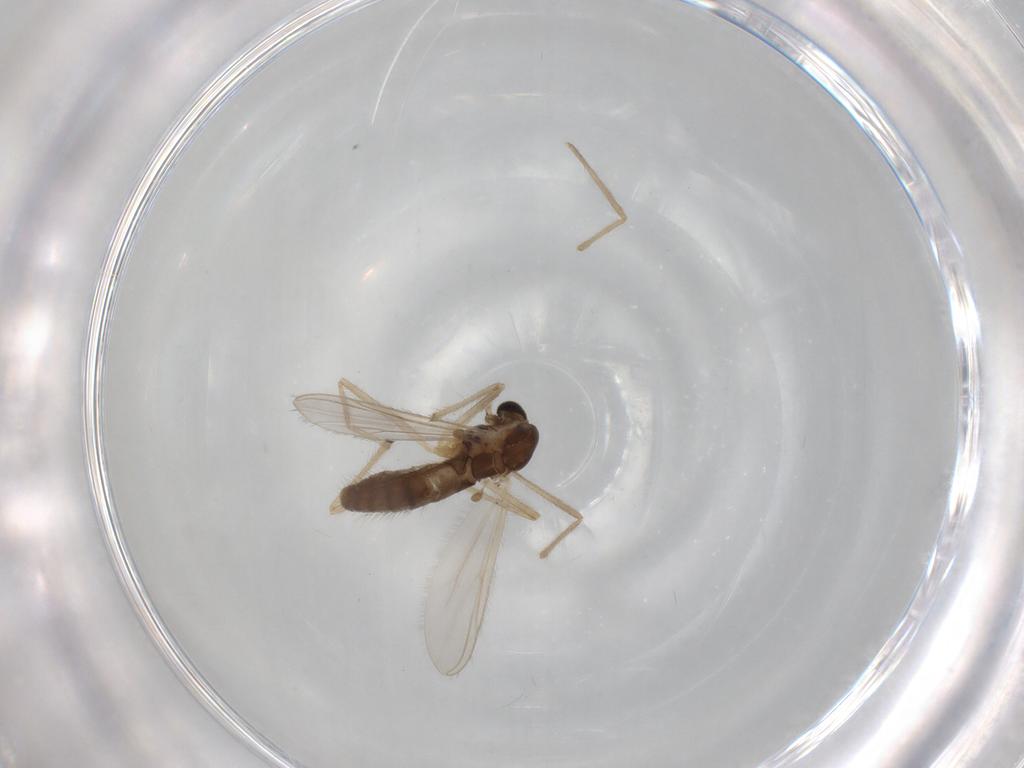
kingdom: Animalia
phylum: Arthropoda
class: Insecta
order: Diptera
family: Chironomidae
